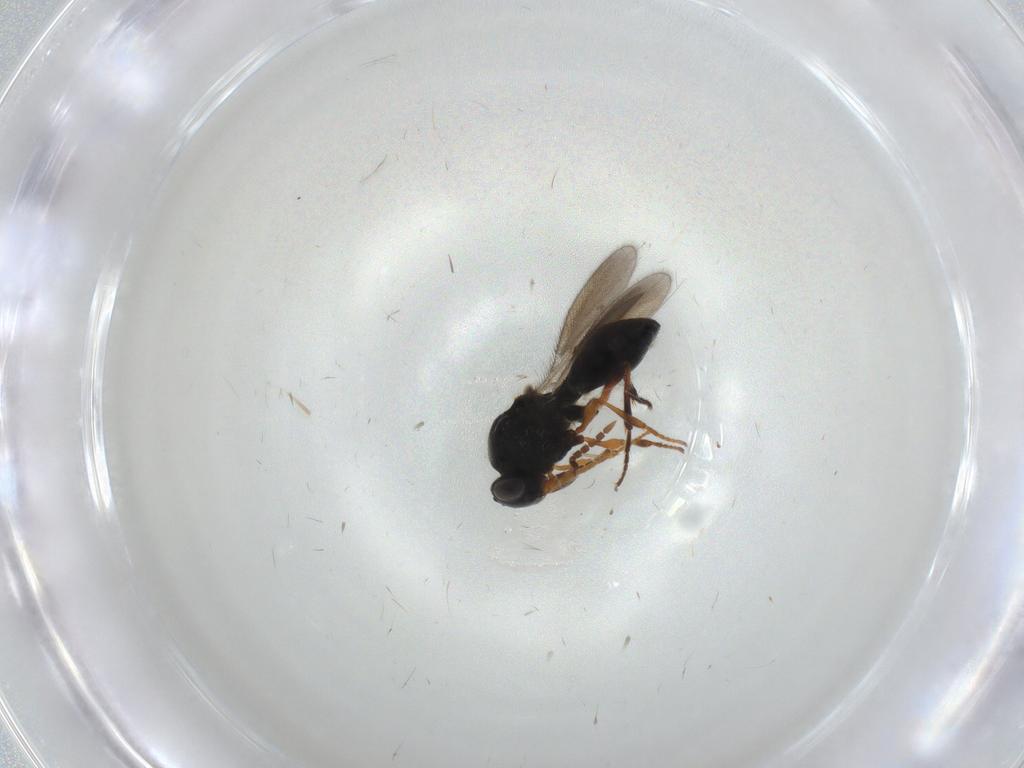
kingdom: Animalia
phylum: Arthropoda
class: Insecta
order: Hymenoptera
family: Platygastridae
